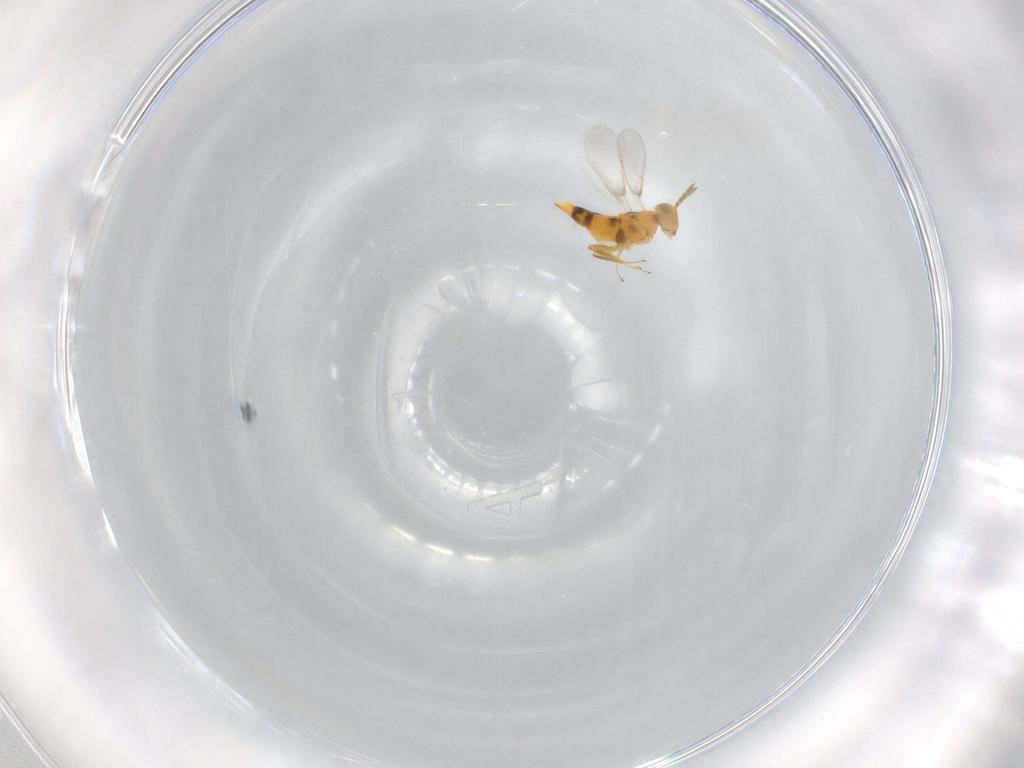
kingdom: Animalia
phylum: Arthropoda
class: Insecta
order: Hymenoptera
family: Aphelinidae
